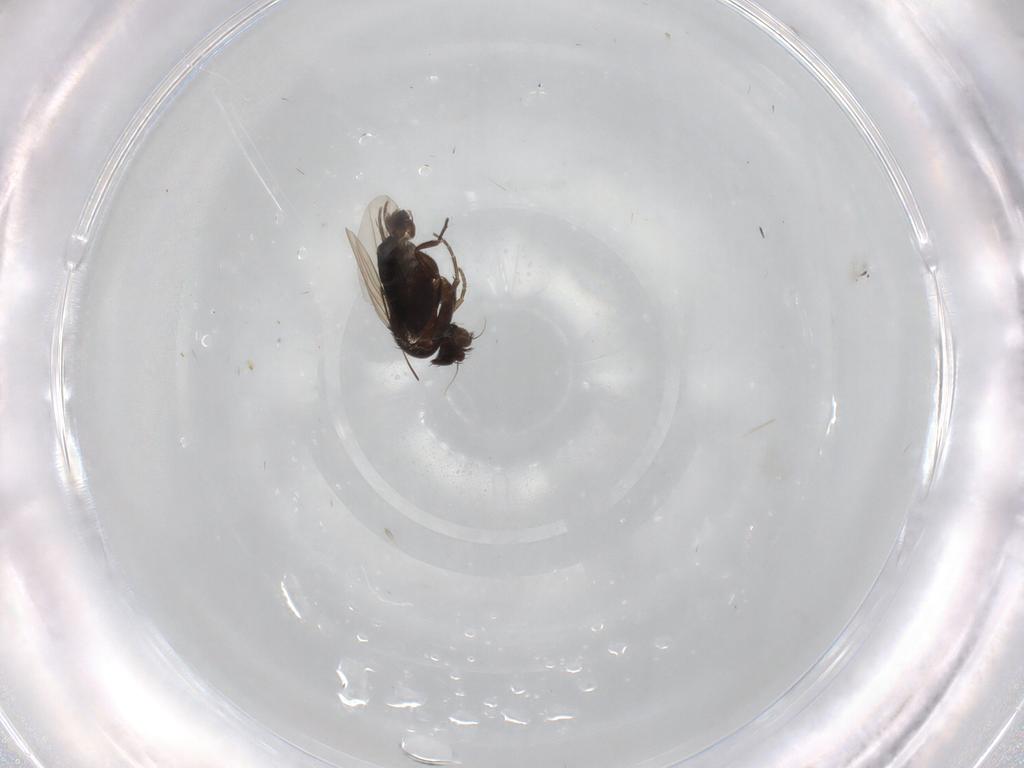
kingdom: Animalia
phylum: Arthropoda
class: Insecta
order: Diptera
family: Phoridae
